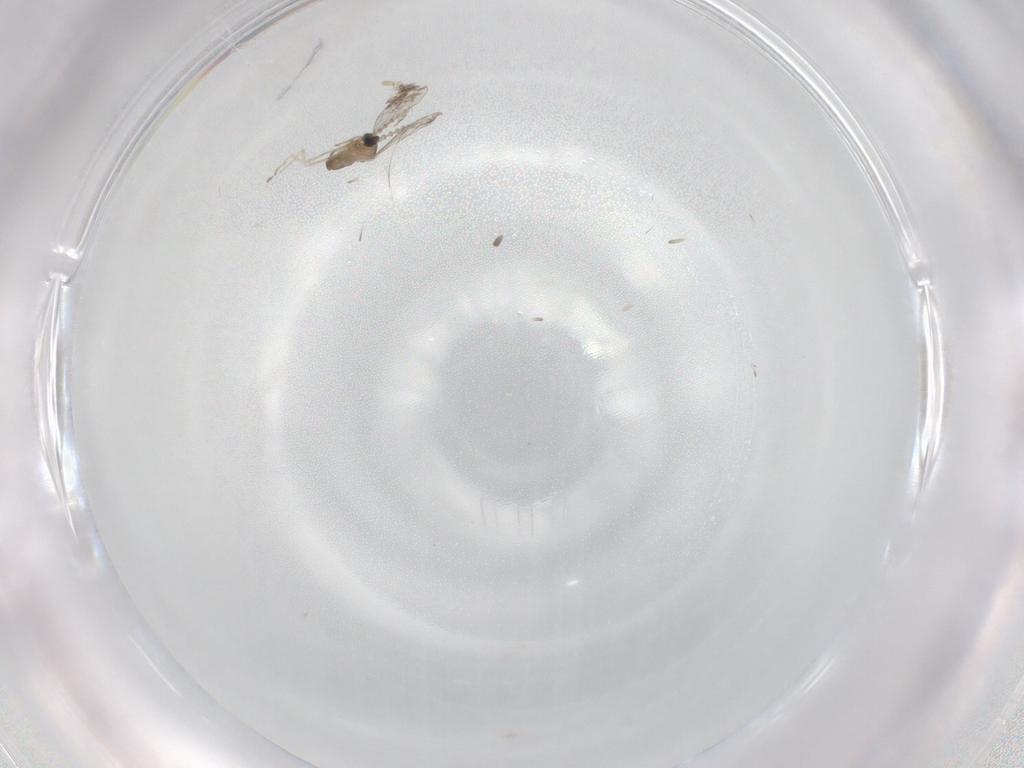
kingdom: Animalia
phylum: Arthropoda
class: Insecta
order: Diptera
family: Cecidomyiidae
